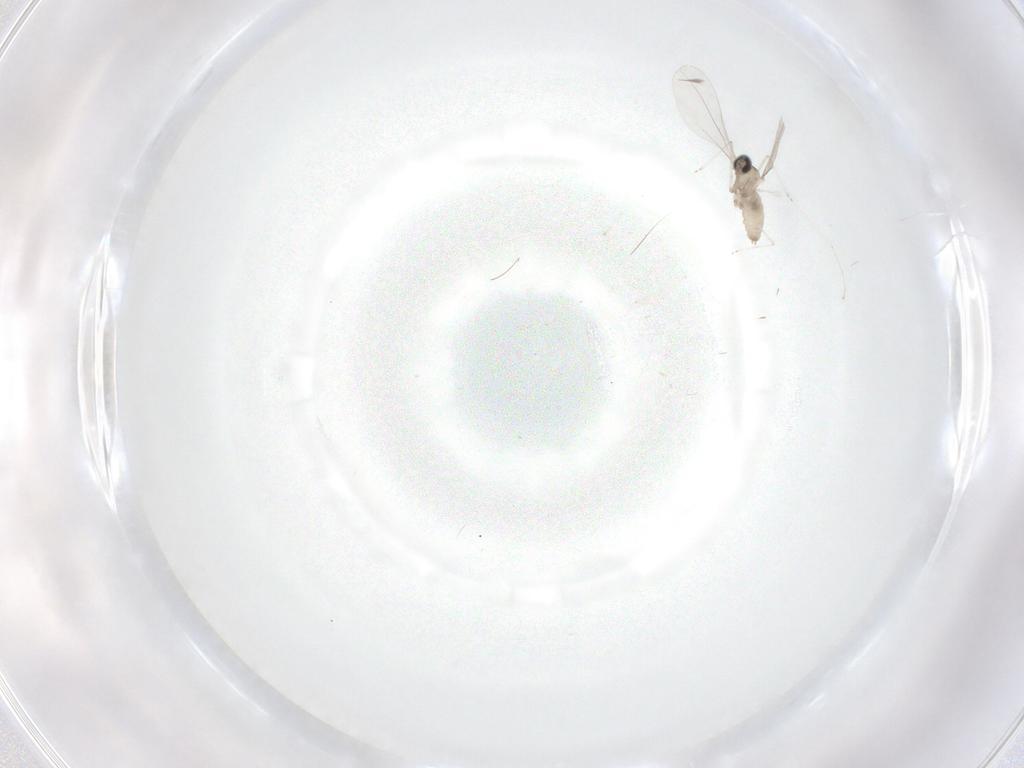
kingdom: Animalia
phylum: Arthropoda
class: Insecta
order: Diptera
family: Cecidomyiidae
